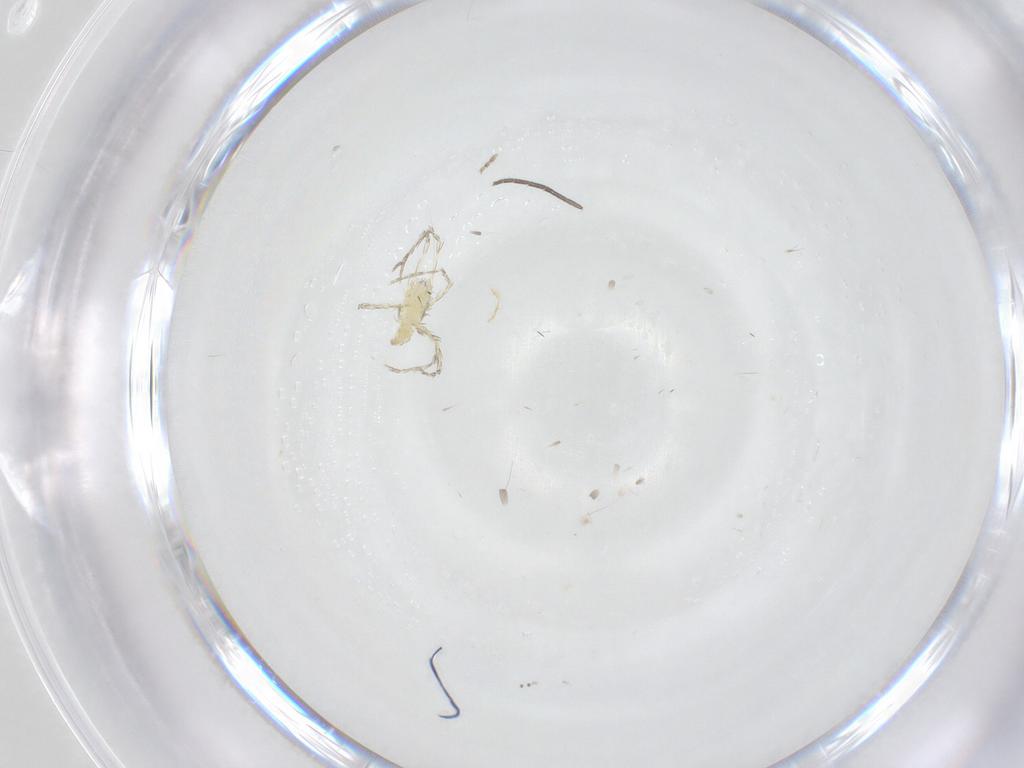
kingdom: Animalia
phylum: Arthropoda
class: Insecta
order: Diptera
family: Psychodidae
